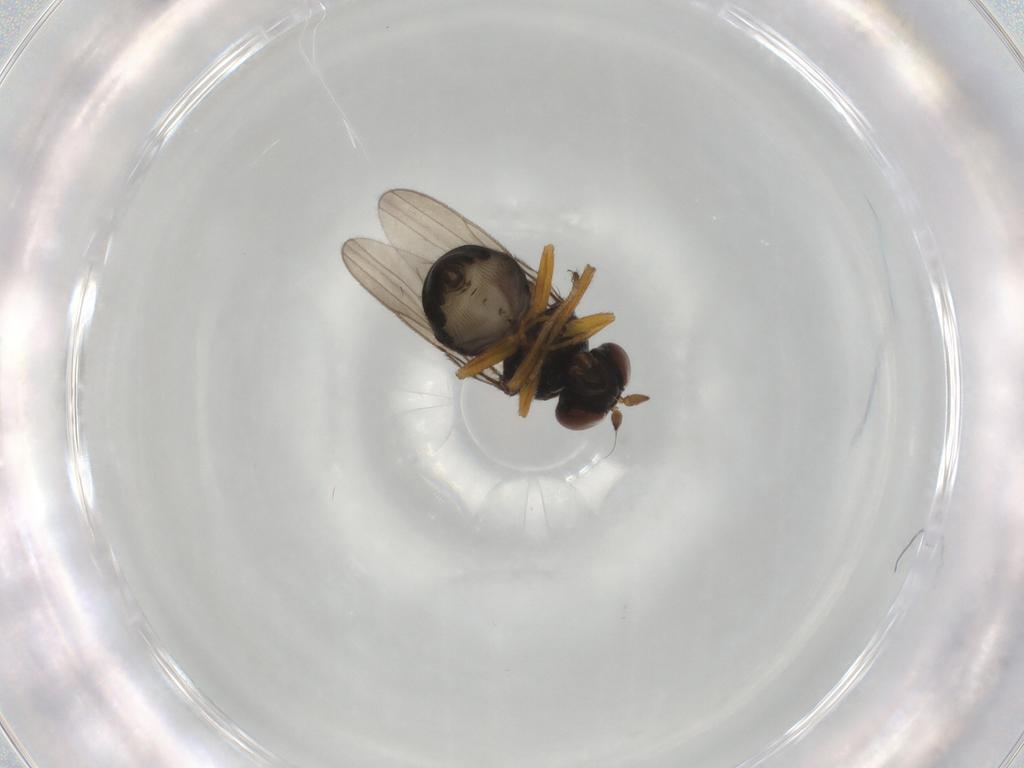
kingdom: Animalia
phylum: Arthropoda
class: Insecta
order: Diptera
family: Ephydridae
